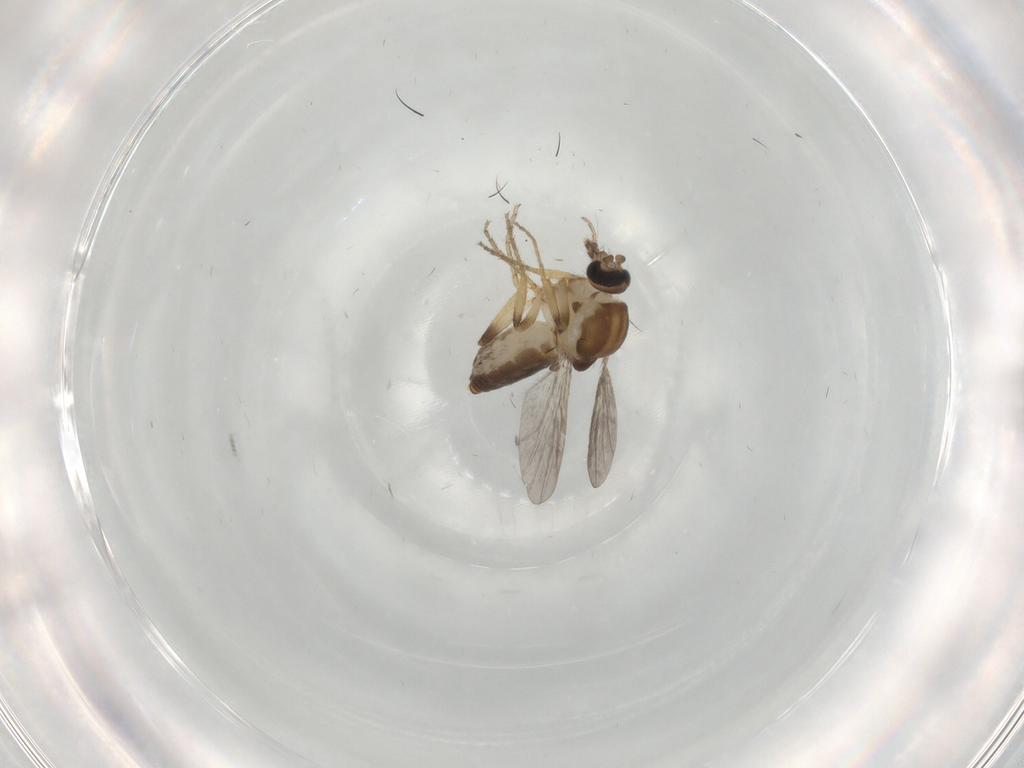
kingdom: Animalia
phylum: Arthropoda
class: Insecta
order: Diptera
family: Ceratopogonidae
